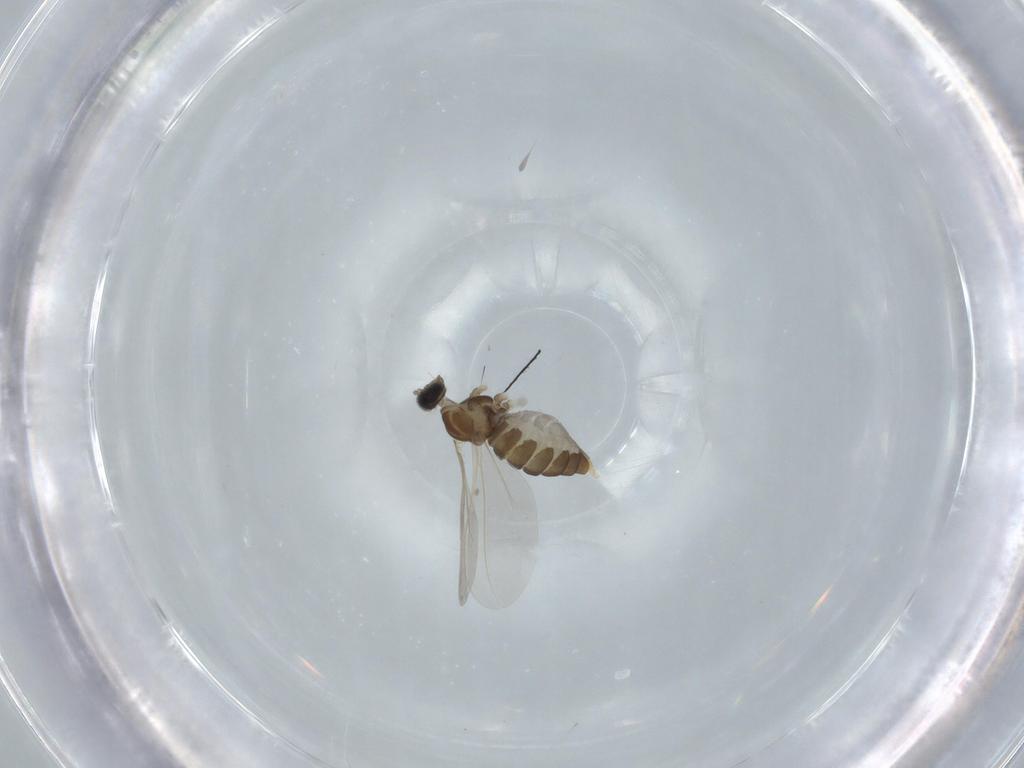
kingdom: Animalia
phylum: Arthropoda
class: Insecta
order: Diptera
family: Cecidomyiidae
